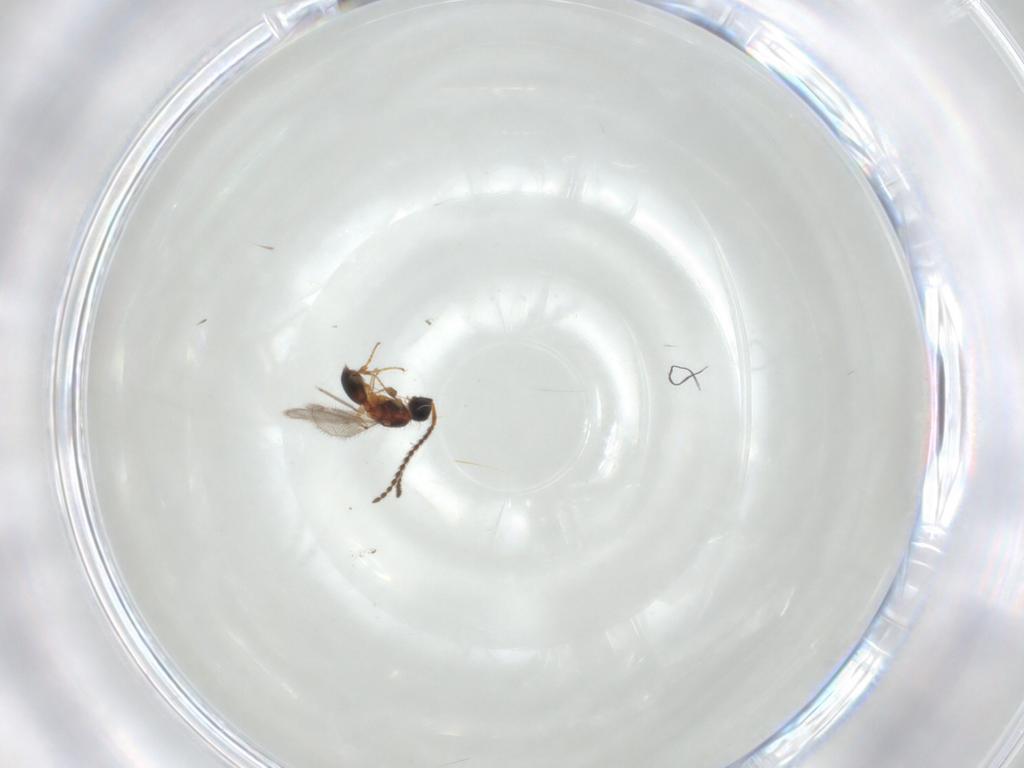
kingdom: Animalia
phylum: Arthropoda
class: Insecta
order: Hymenoptera
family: Diapriidae
